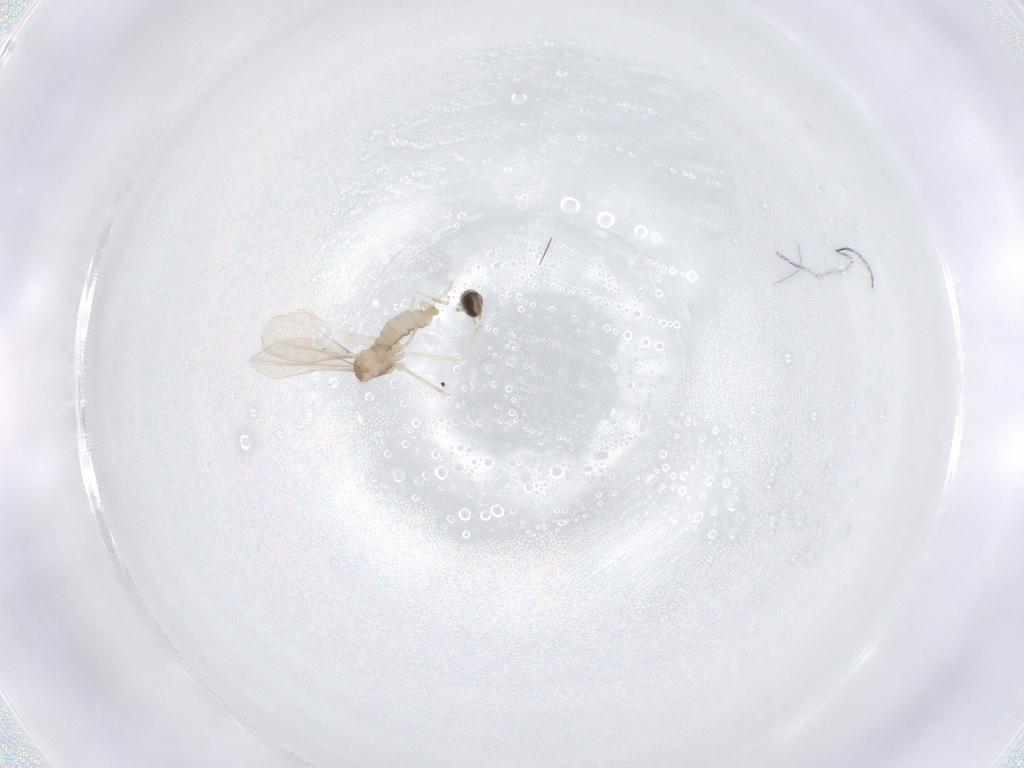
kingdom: Animalia
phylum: Arthropoda
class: Insecta
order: Diptera
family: Cecidomyiidae
